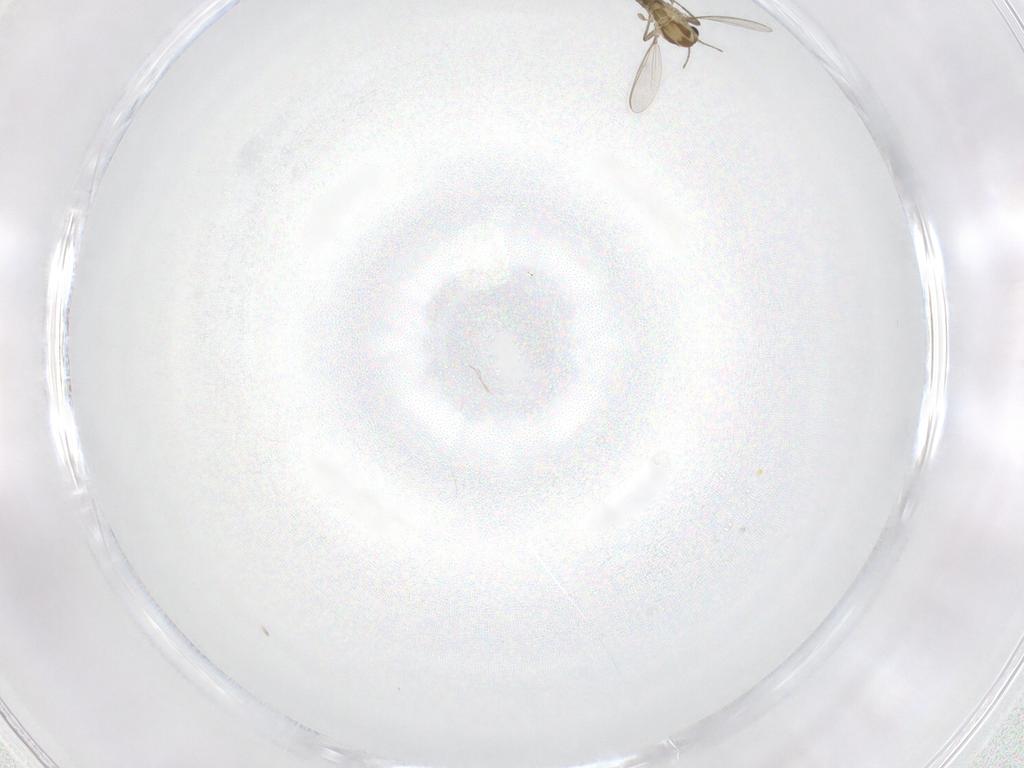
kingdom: Animalia
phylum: Arthropoda
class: Insecta
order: Diptera
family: Chironomidae
